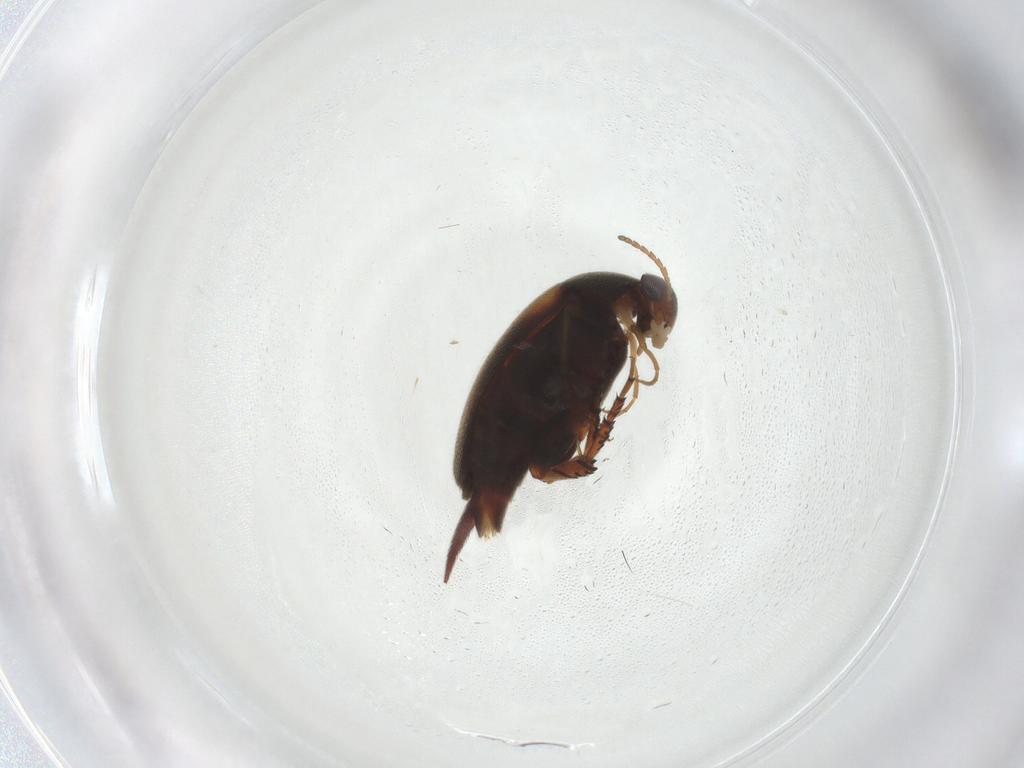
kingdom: Animalia
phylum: Arthropoda
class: Insecta
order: Coleoptera
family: Mordellidae
